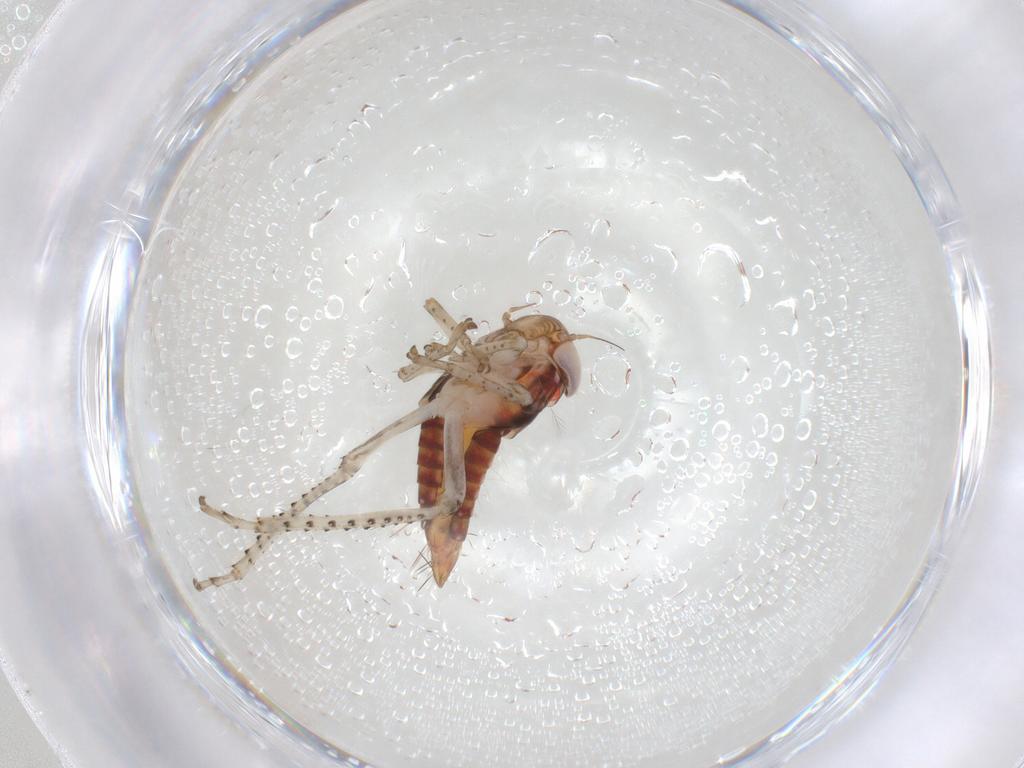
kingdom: Animalia
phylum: Arthropoda
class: Insecta
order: Hemiptera
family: Cicadellidae
